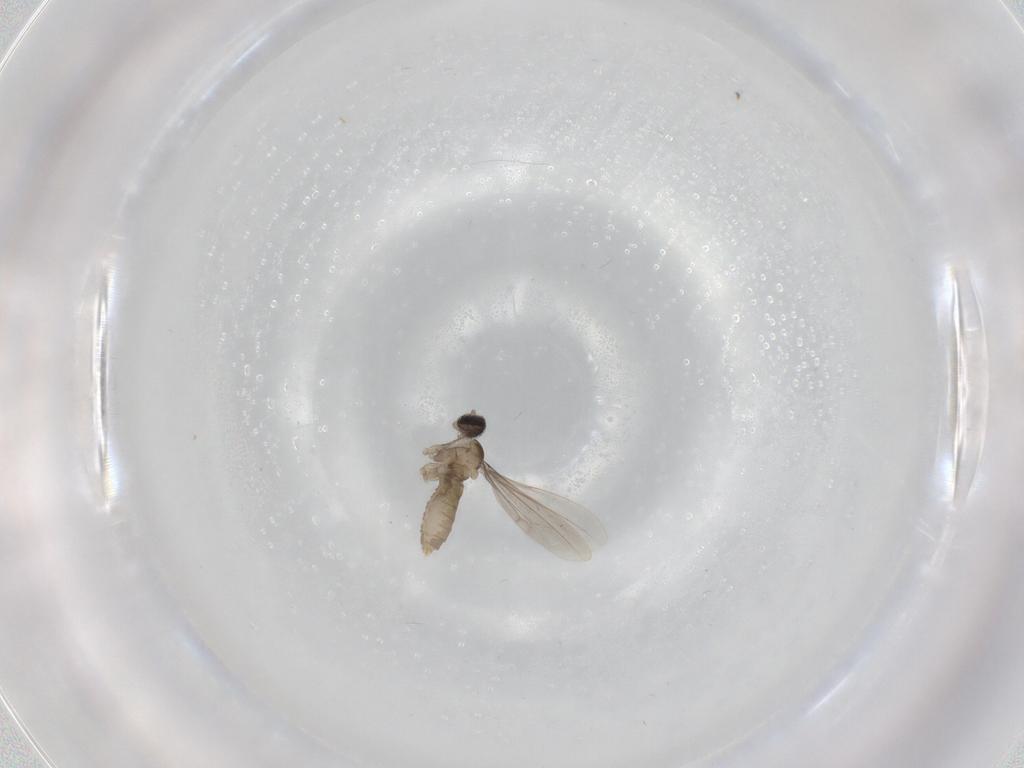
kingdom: Animalia
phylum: Arthropoda
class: Insecta
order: Diptera
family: Cecidomyiidae
